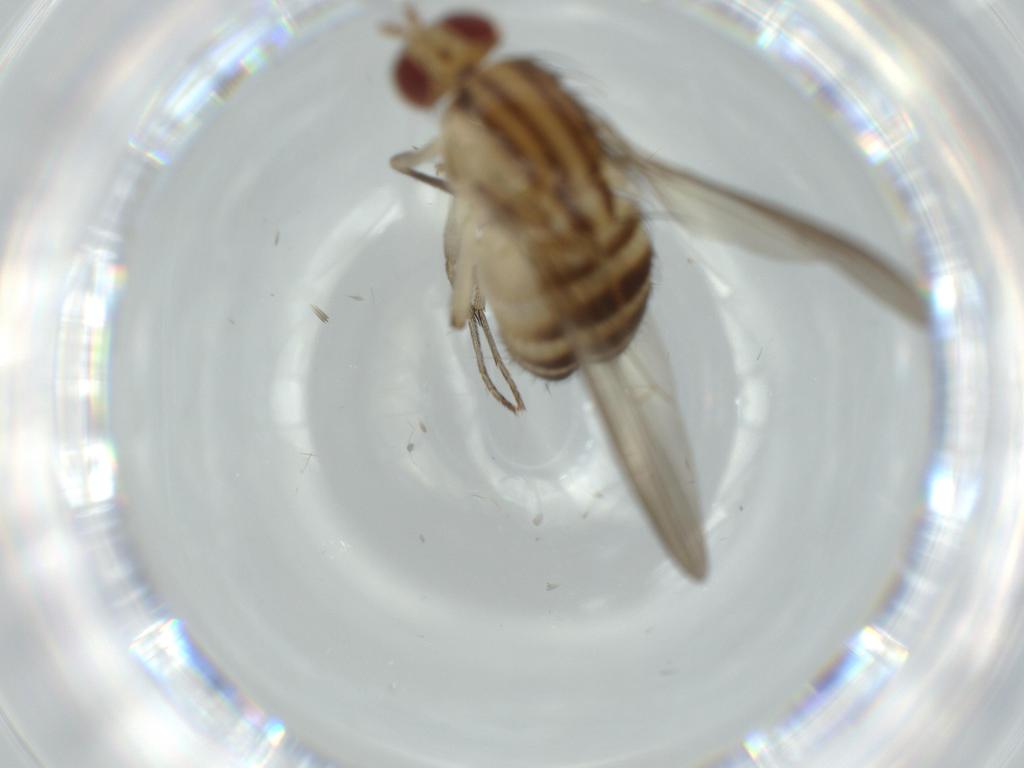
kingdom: Animalia
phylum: Arthropoda
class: Insecta
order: Diptera
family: Lauxaniidae
